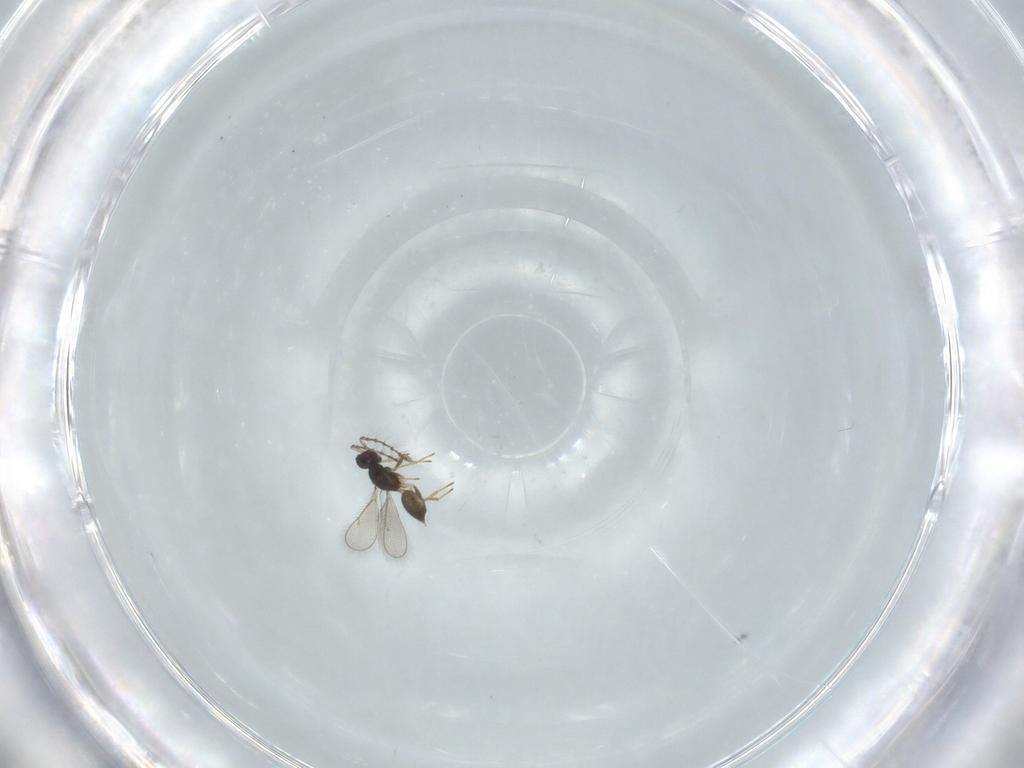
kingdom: Animalia
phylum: Arthropoda
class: Insecta
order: Hymenoptera
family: Eulophidae
